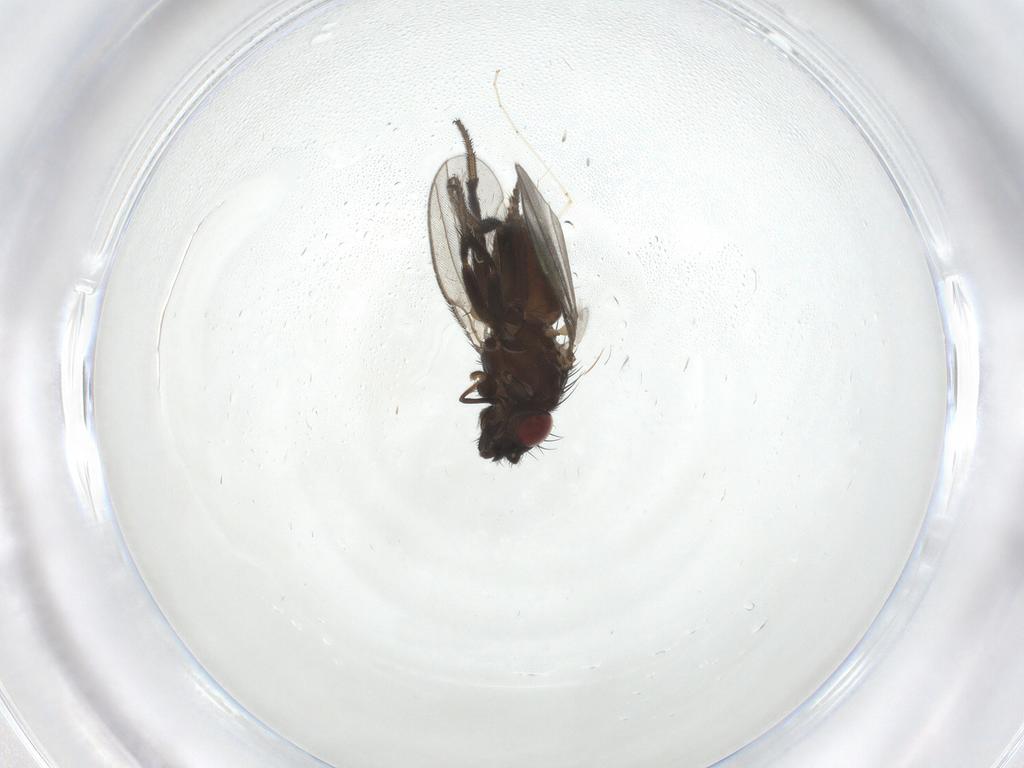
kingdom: Animalia
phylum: Arthropoda
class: Insecta
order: Diptera
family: Milichiidae
